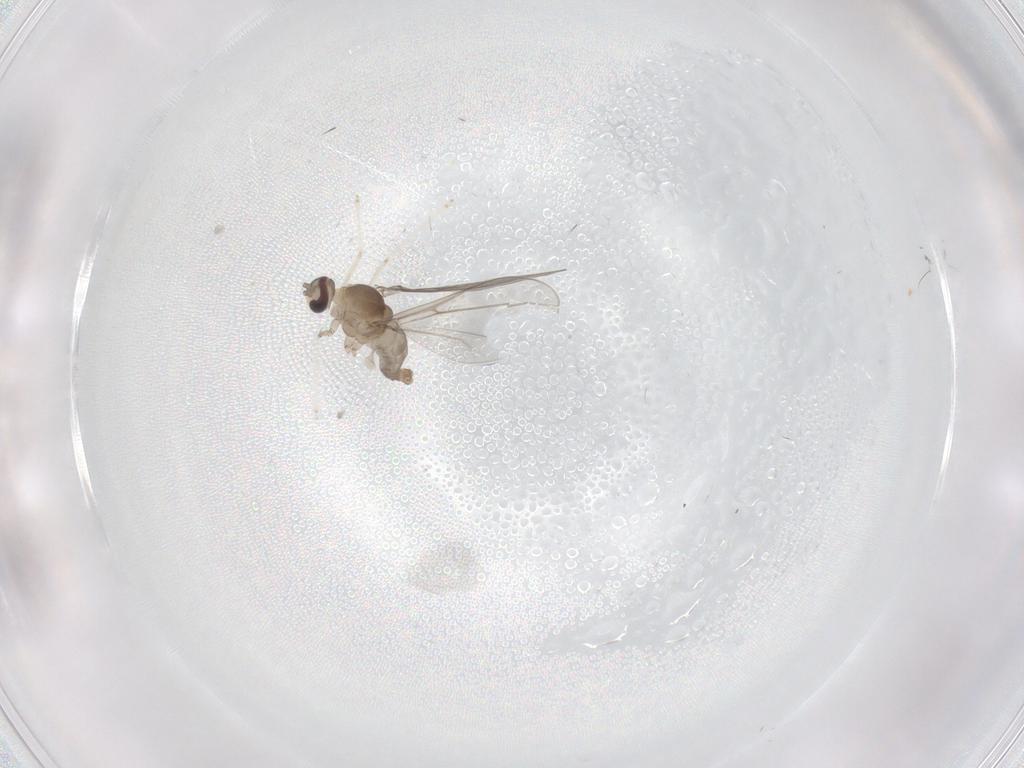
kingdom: Animalia
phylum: Arthropoda
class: Insecta
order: Diptera
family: Cecidomyiidae
